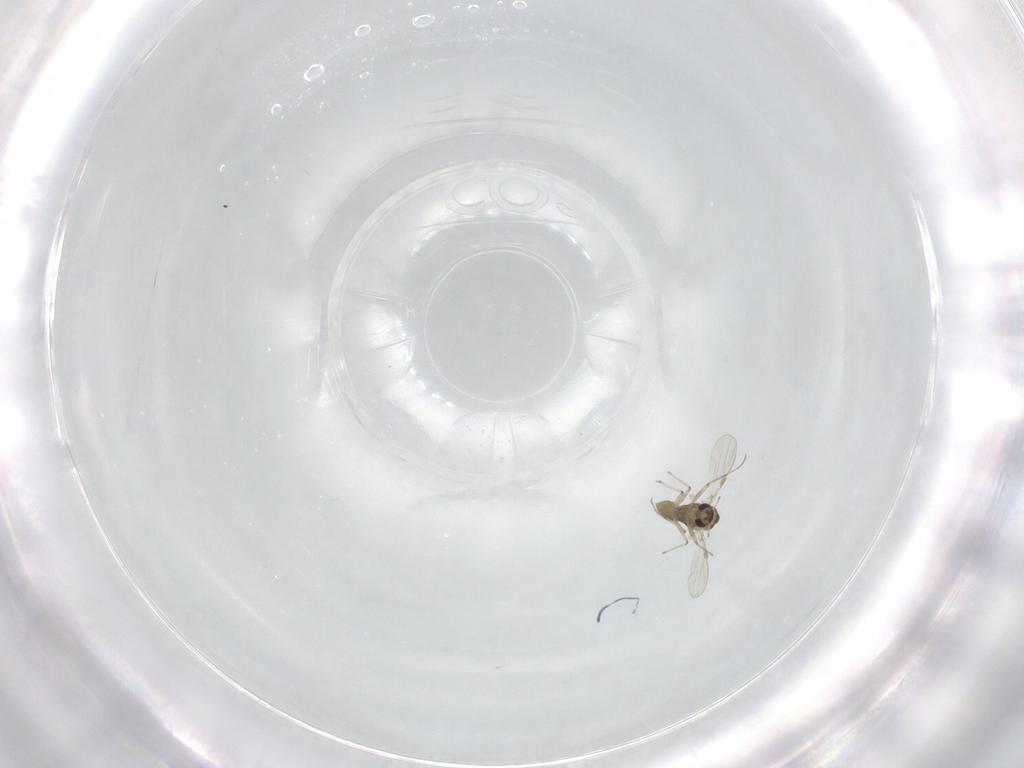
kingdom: Animalia
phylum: Arthropoda
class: Insecta
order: Diptera
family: Chironomidae
